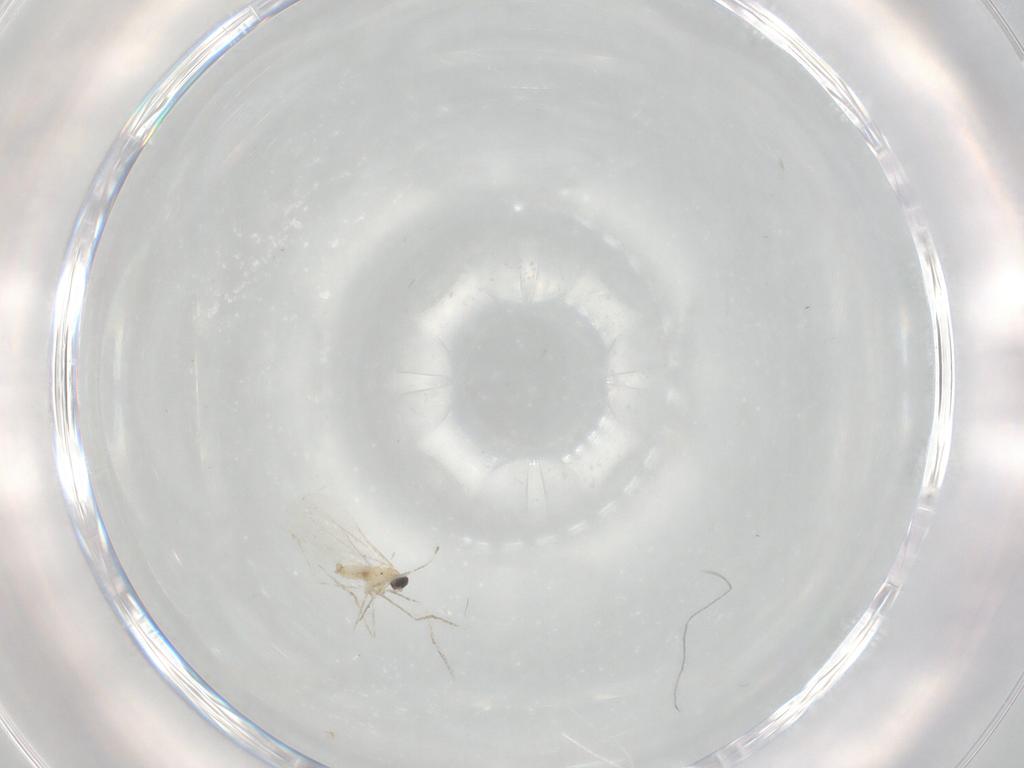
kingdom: Animalia
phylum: Arthropoda
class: Insecta
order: Diptera
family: Cecidomyiidae
